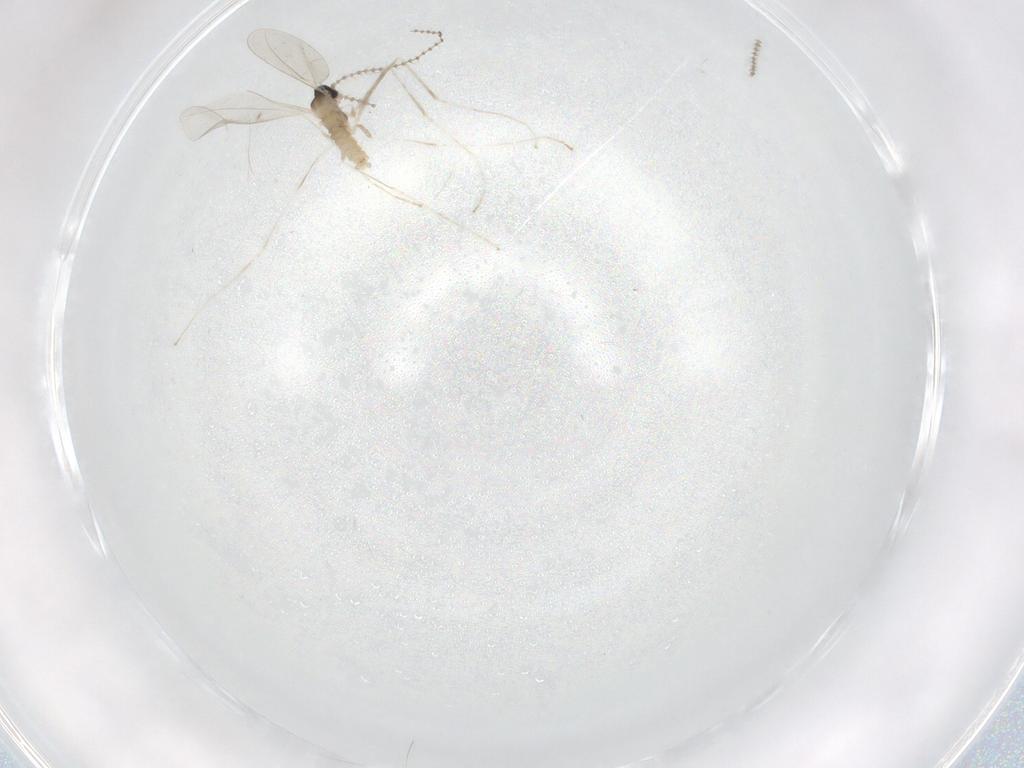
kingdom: Animalia
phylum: Arthropoda
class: Insecta
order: Diptera
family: Cecidomyiidae
